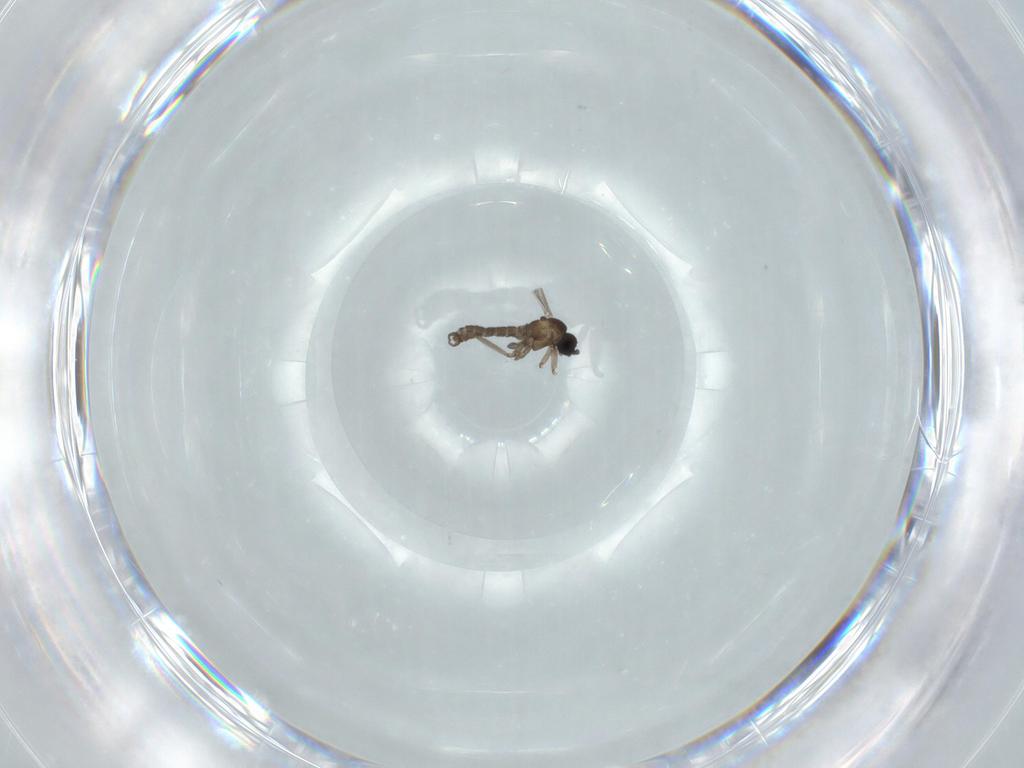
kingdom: Animalia
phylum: Arthropoda
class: Insecta
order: Diptera
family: Sciaridae
